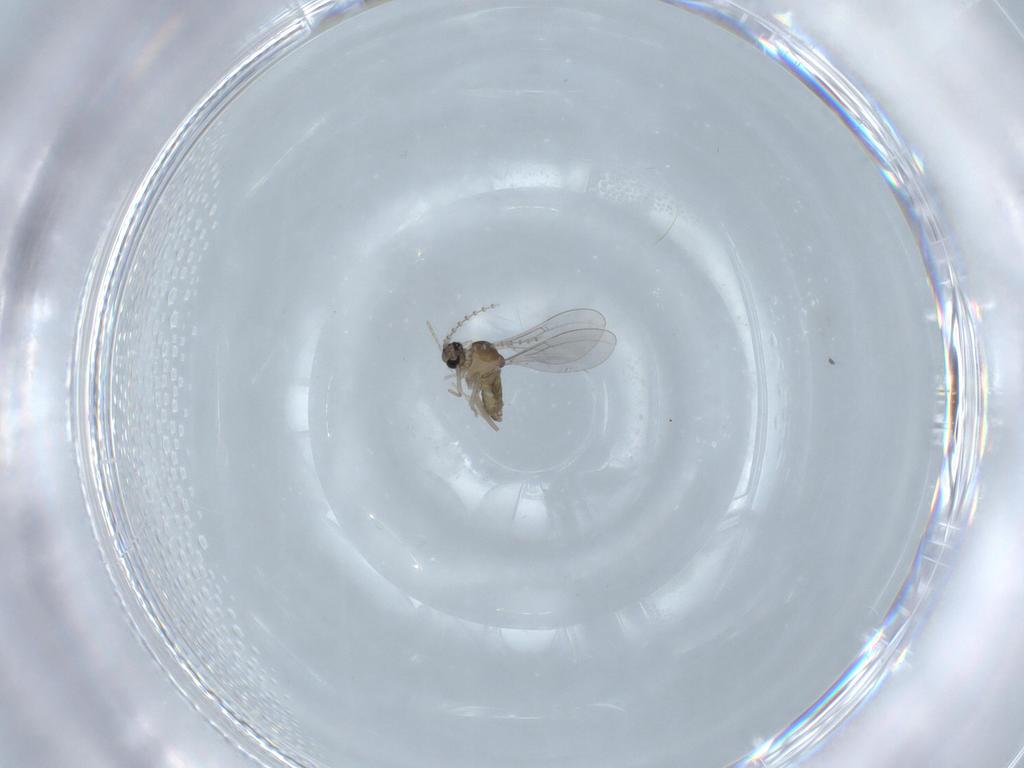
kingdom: Animalia
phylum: Arthropoda
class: Insecta
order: Diptera
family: Cecidomyiidae
